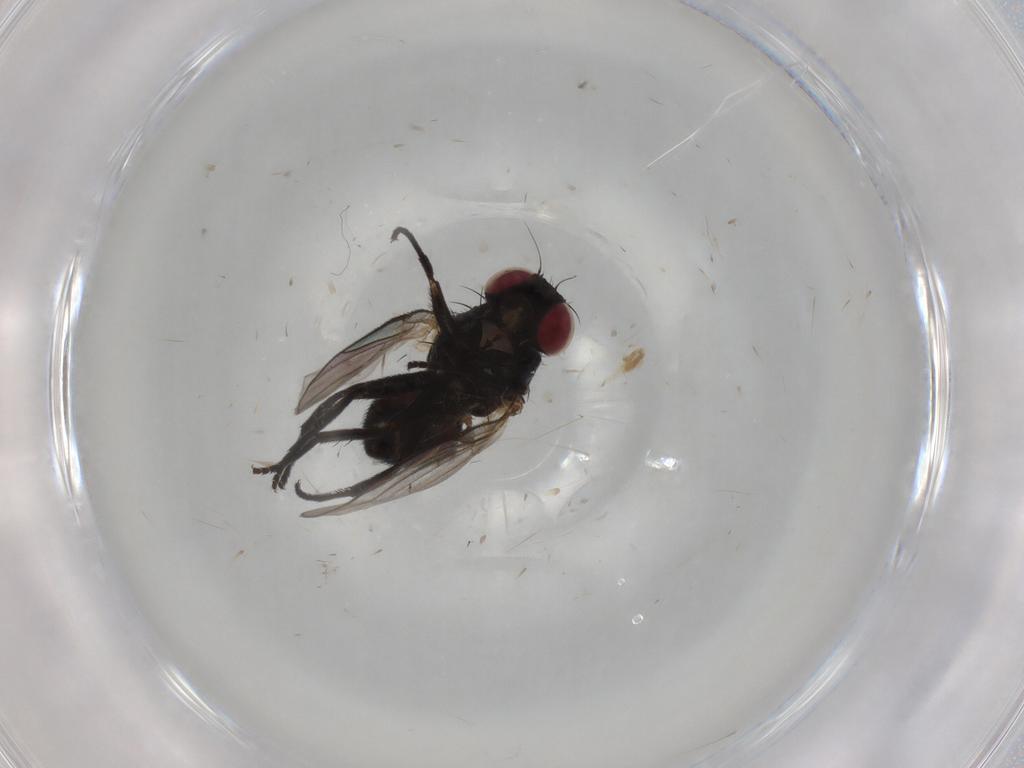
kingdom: Animalia
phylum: Arthropoda
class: Insecta
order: Diptera
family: Agromyzidae
